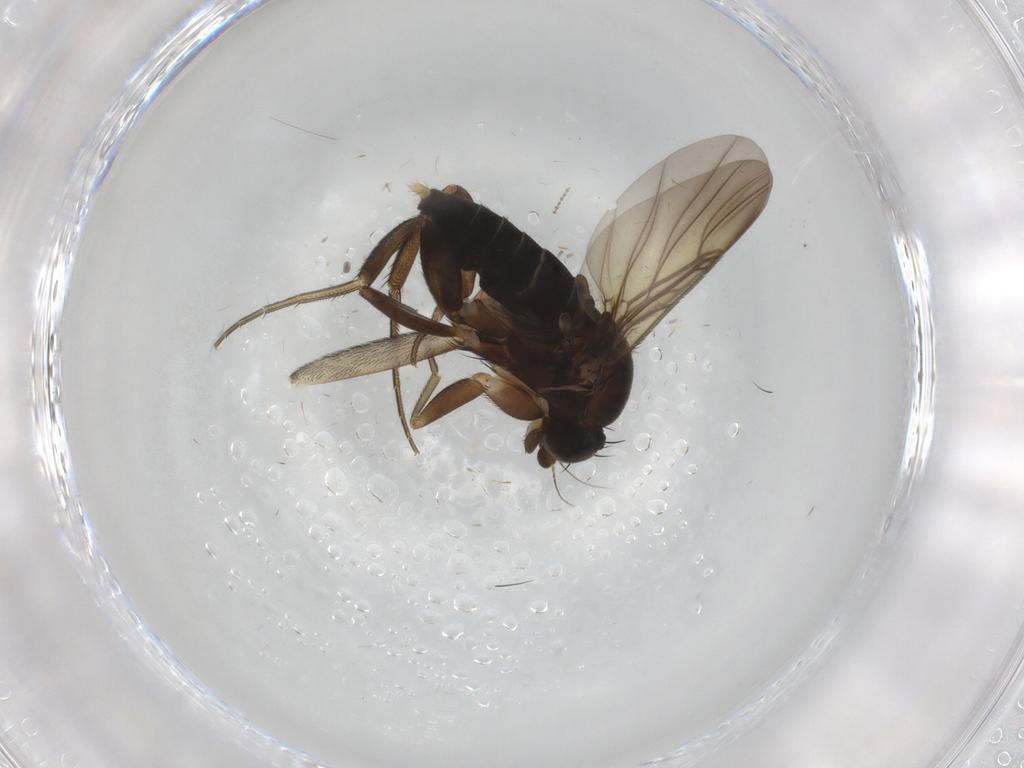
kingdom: Animalia
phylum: Arthropoda
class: Insecta
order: Diptera
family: Phoridae
